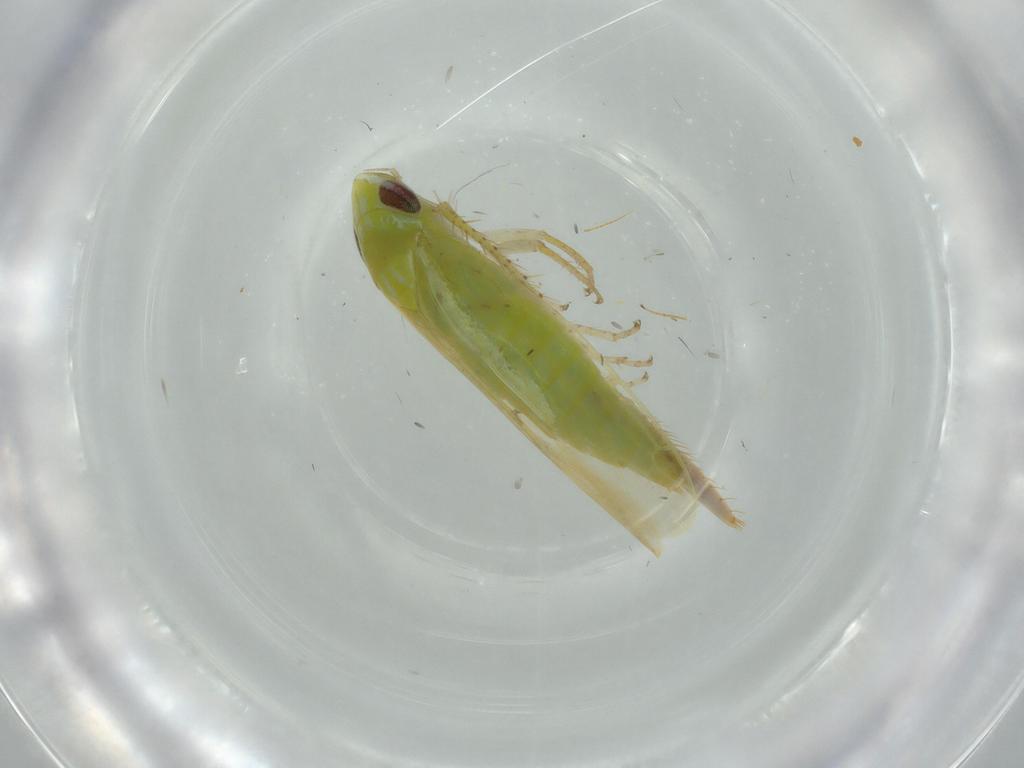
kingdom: Animalia
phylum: Arthropoda
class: Insecta
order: Hemiptera
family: Cicadellidae
